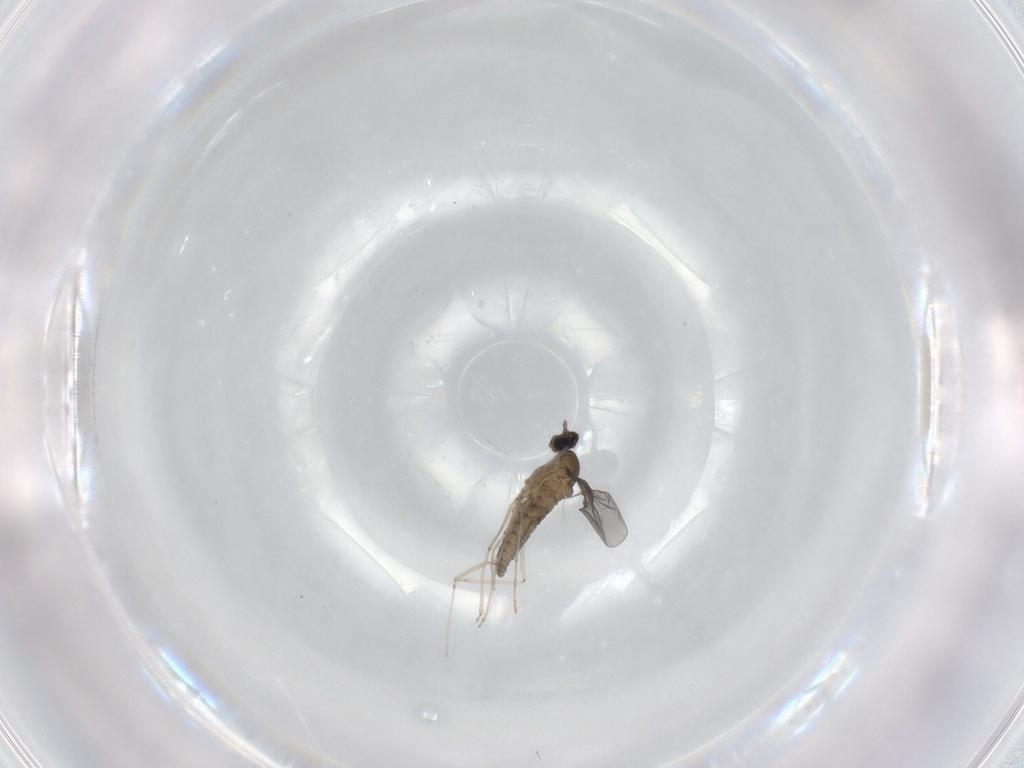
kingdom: Animalia
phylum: Arthropoda
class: Insecta
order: Diptera
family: Cecidomyiidae
